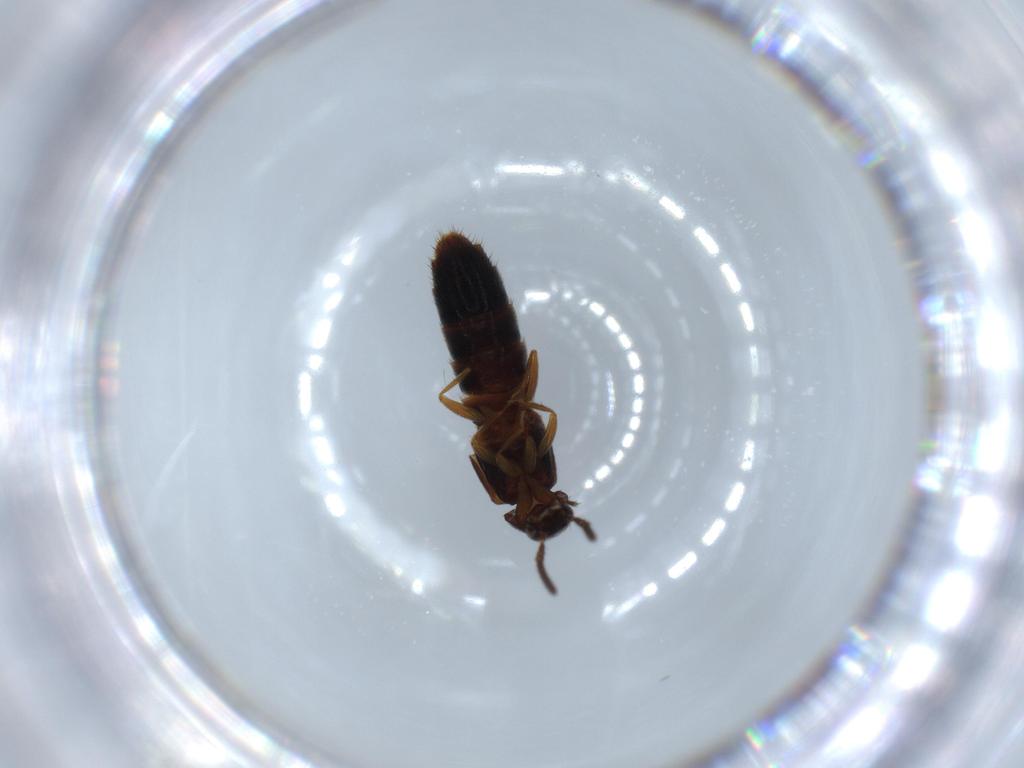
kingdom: Animalia
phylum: Arthropoda
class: Insecta
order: Coleoptera
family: Staphylinidae
